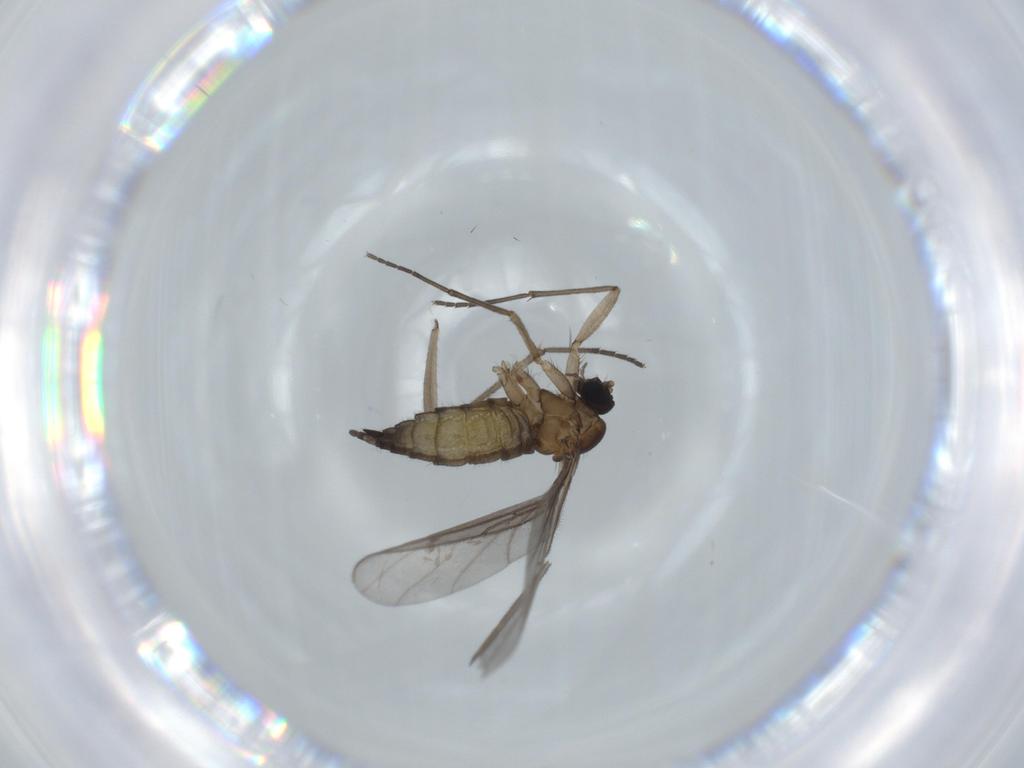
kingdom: Animalia
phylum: Arthropoda
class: Insecta
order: Diptera
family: Sciaridae
